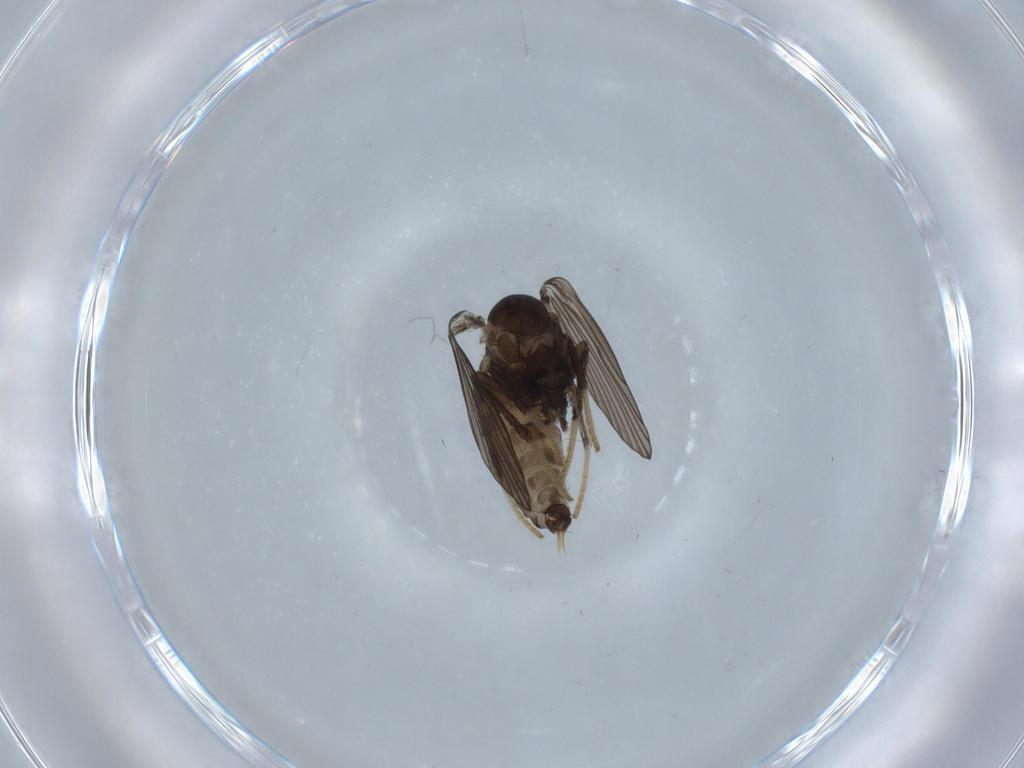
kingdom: Animalia
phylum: Arthropoda
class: Insecta
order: Diptera
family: Psychodidae
